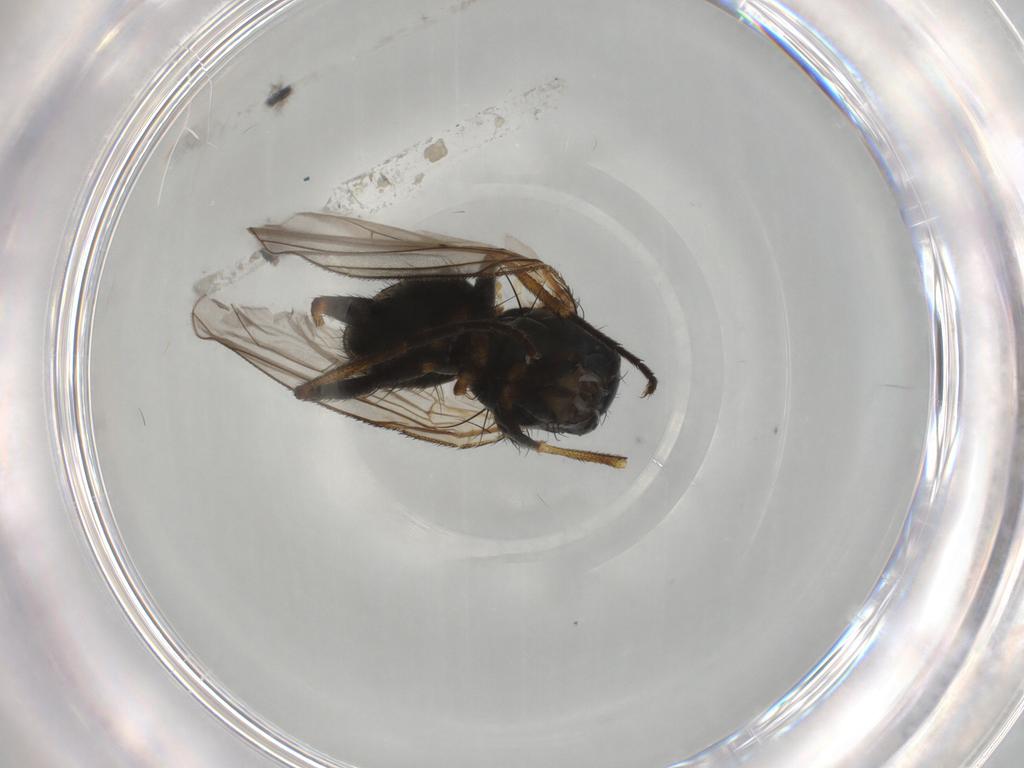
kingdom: Animalia
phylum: Arthropoda
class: Insecta
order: Diptera
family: Muscidae
